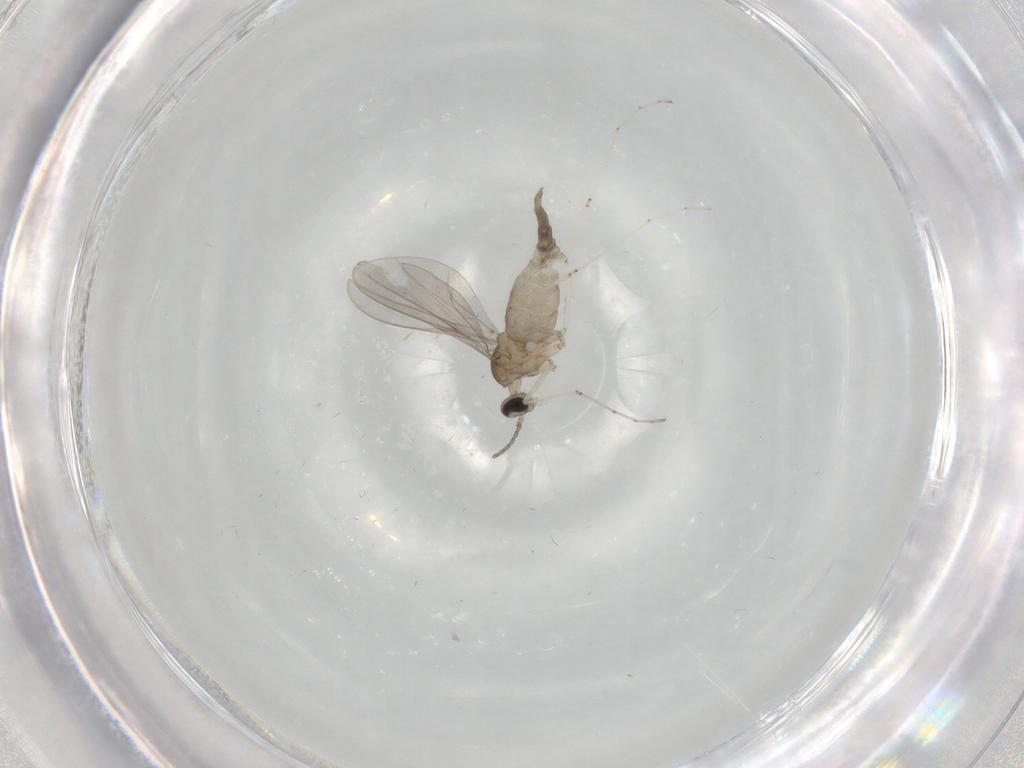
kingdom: Animalia
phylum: Arthropoda
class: Insecta
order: Diptera
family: Cecidomyiidae
